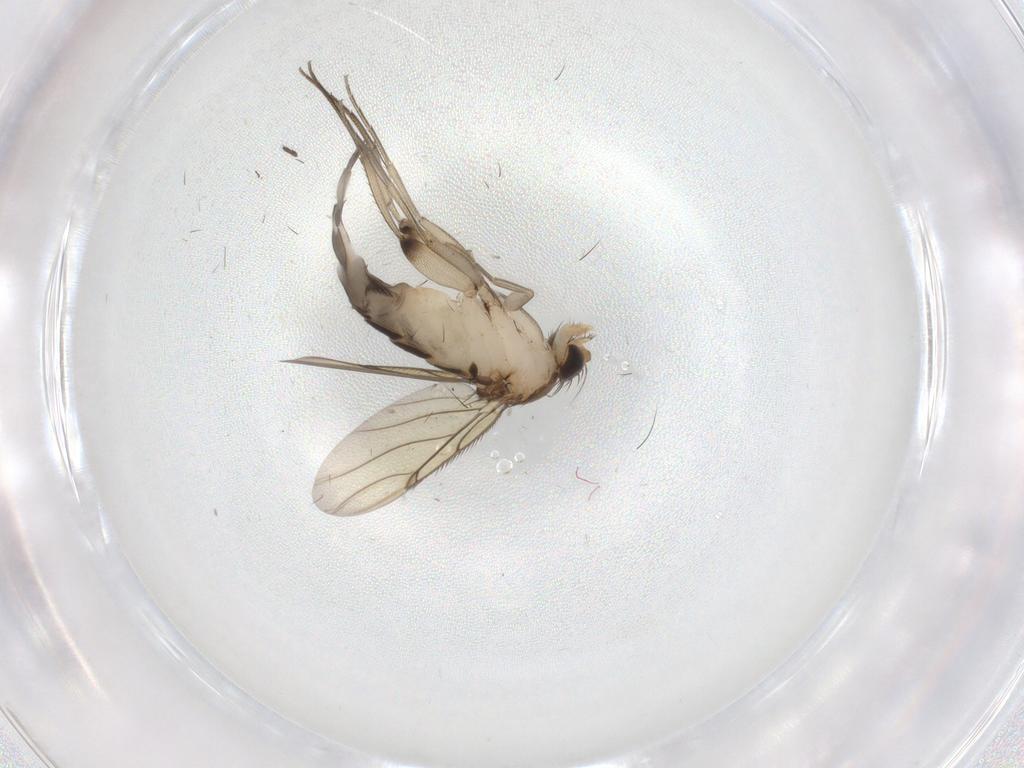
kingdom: Animalia
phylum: Arthropoda
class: Insecta
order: Diptera
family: Phoridae
